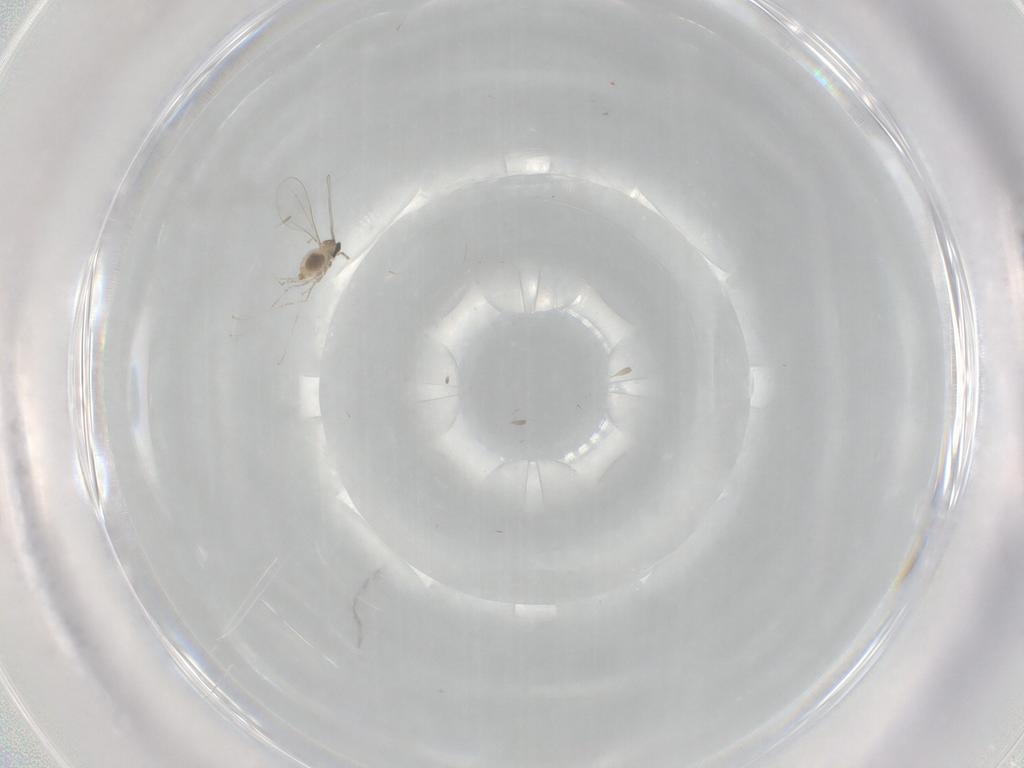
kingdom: Animalia
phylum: Arthropoda
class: Insecta
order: Diptera
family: Cecidomyiidae
